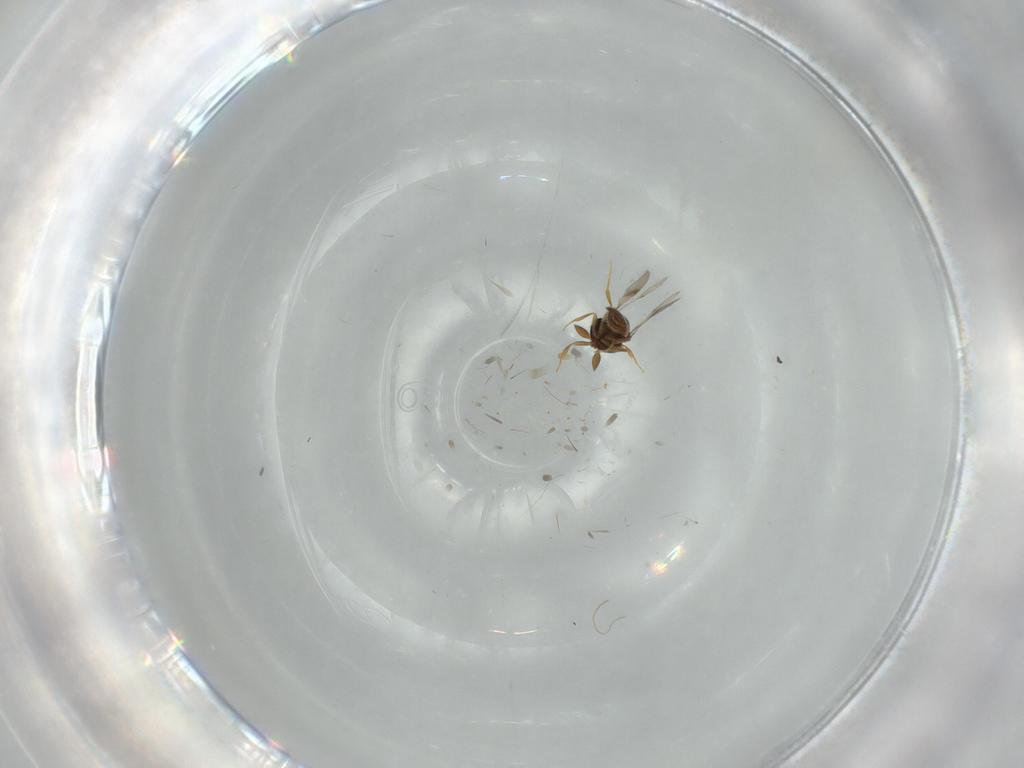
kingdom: Animalia
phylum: Arthropoda
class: Insecta
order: Hymenoptera
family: Scelionidae
